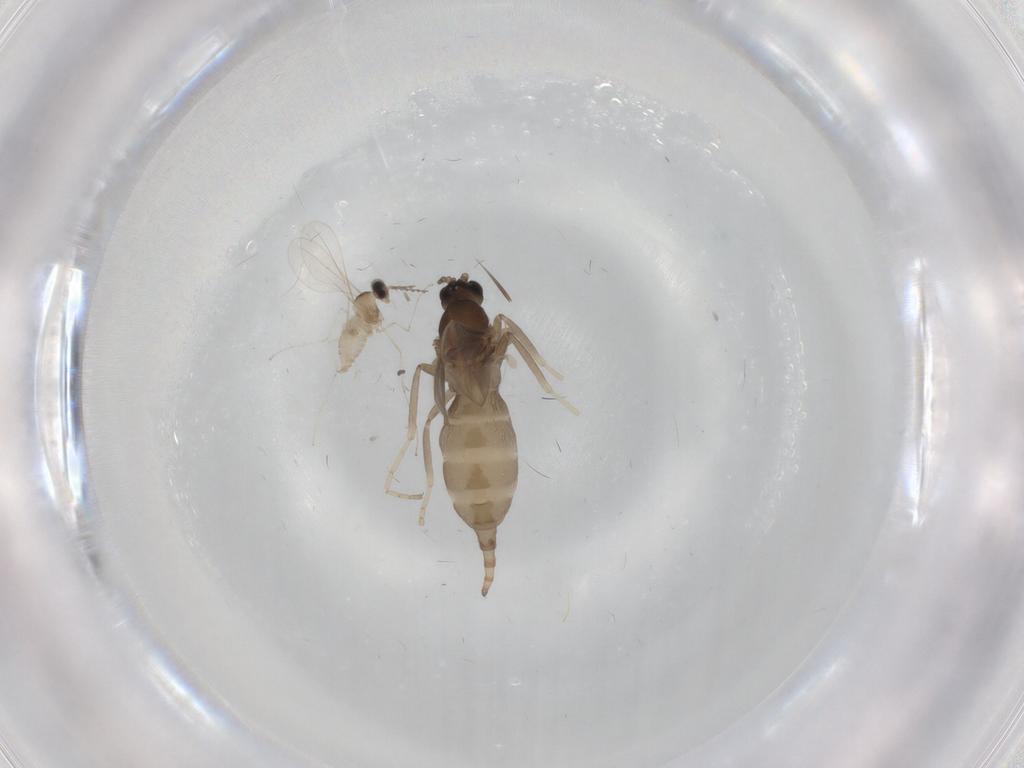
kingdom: Animalia
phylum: Arthropoda
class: Insecta
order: Diptera
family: Cecidomyiidae
